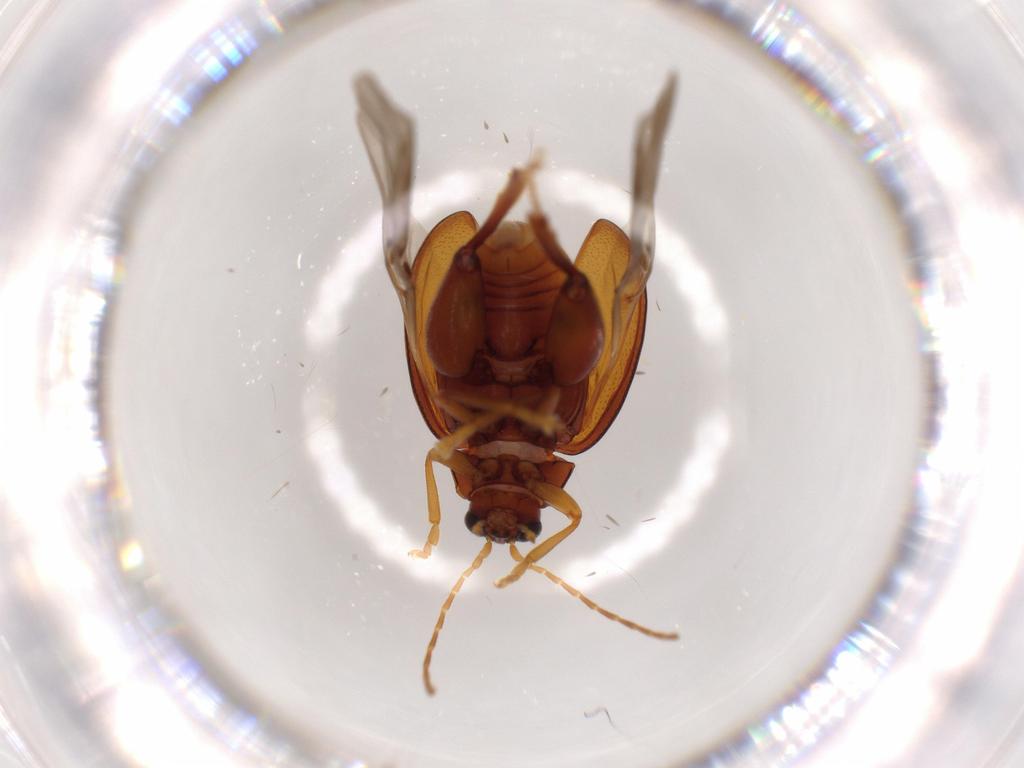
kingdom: Animalia
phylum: Arthropoda
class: Insecta
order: Coleoptera
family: Chrysomelidae
